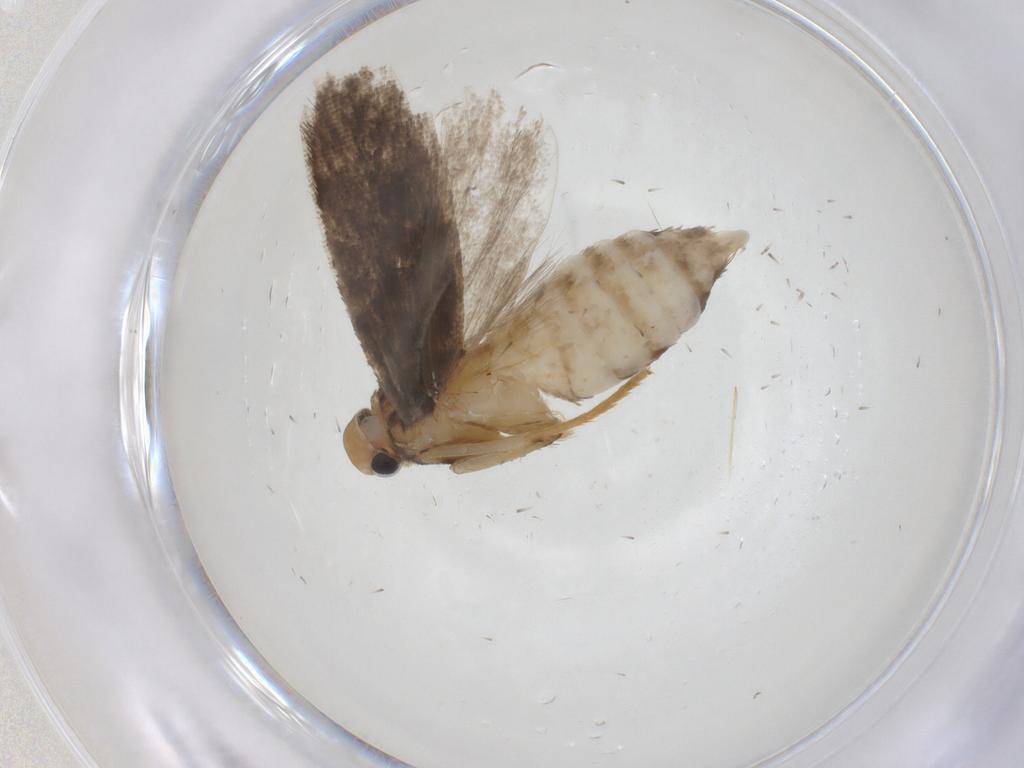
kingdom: Animalia
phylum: Arthropoda
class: Insecta
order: Lepidoptera
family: Gelechiidae
